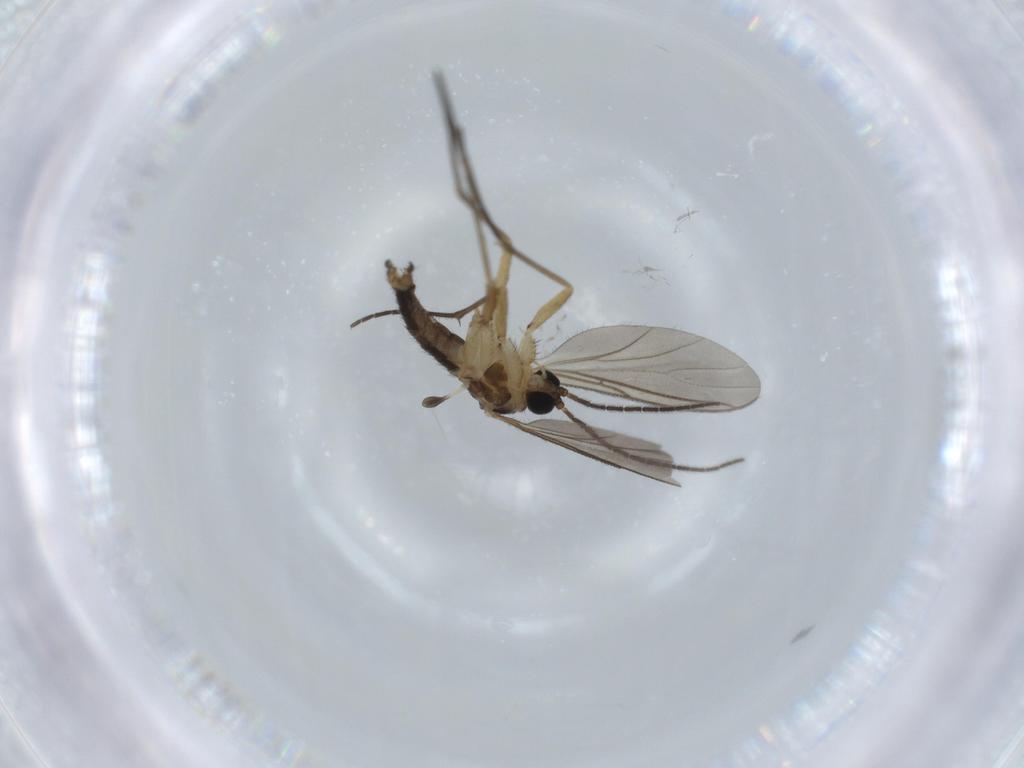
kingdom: Animalia
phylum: Arthropoda
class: Insecta
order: Diptera
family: Sciaridae
